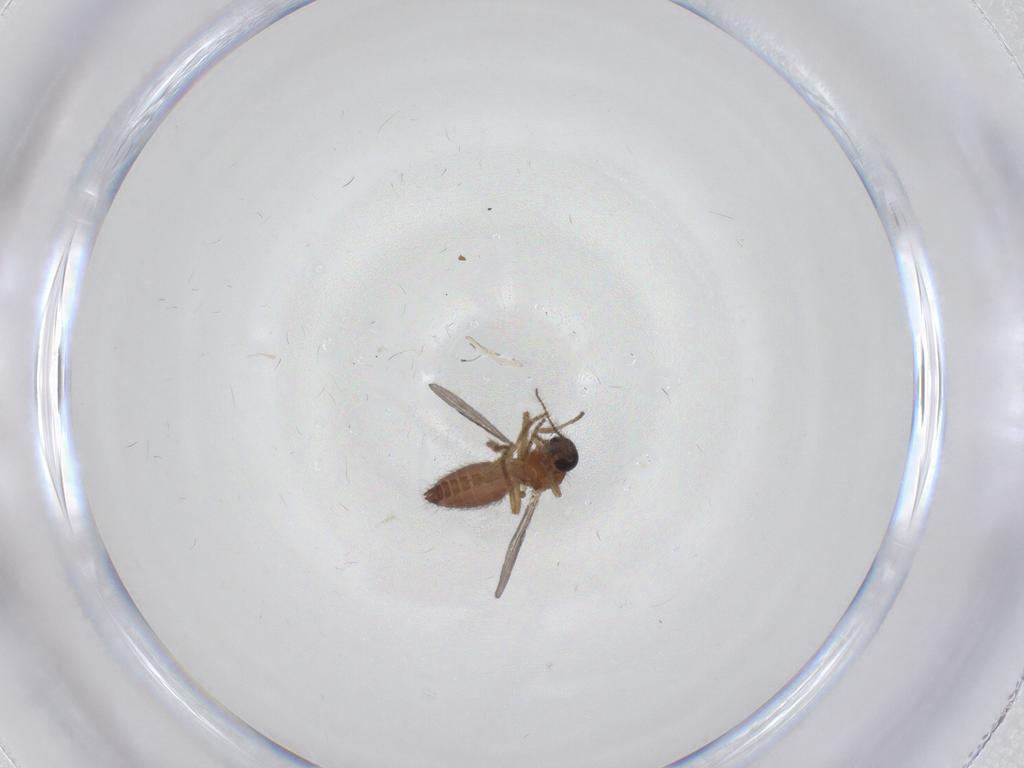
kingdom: Animalia
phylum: Arthropoda
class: Insecta
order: Diptera
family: Ceratopogonidae
